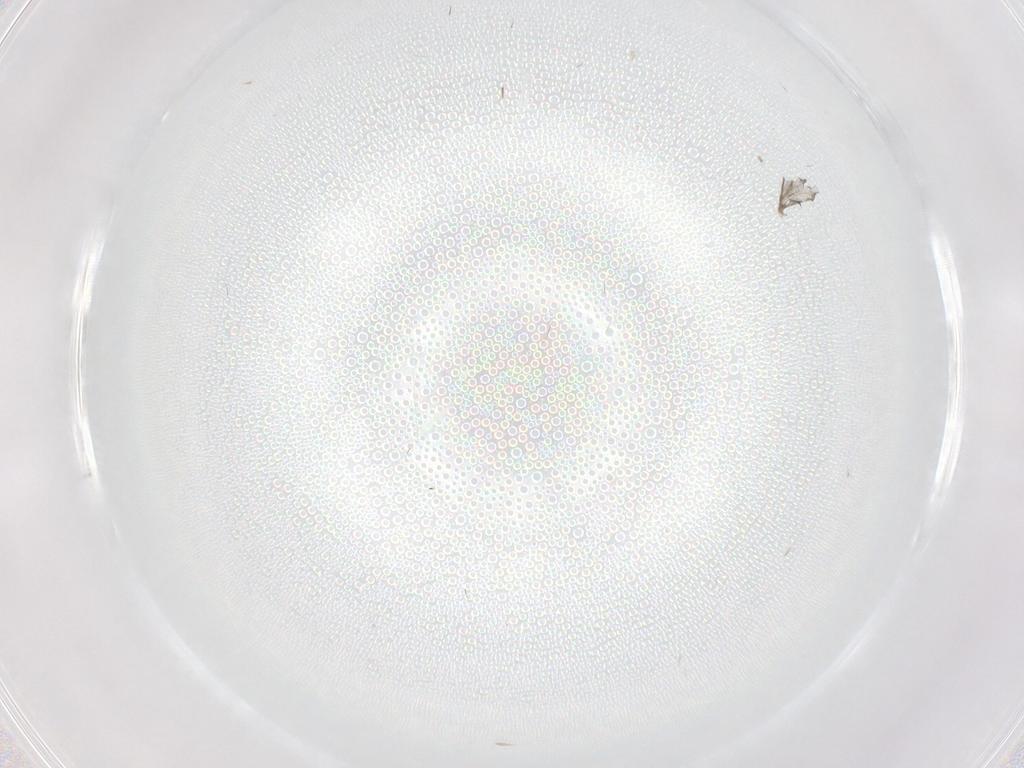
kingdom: Animalia
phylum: Arthropoda
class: Insecta
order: Diptera
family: Cecidomyiidae
